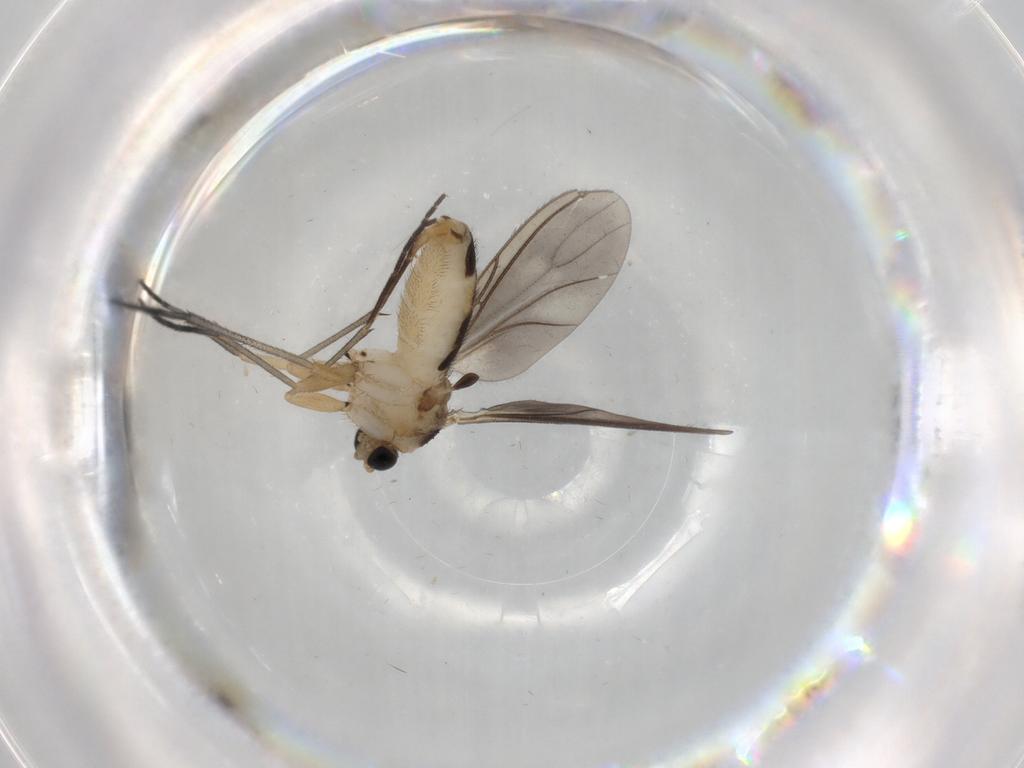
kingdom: Animalia
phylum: Arthropoda
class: Insecta
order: Diptera
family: Sciaridae
